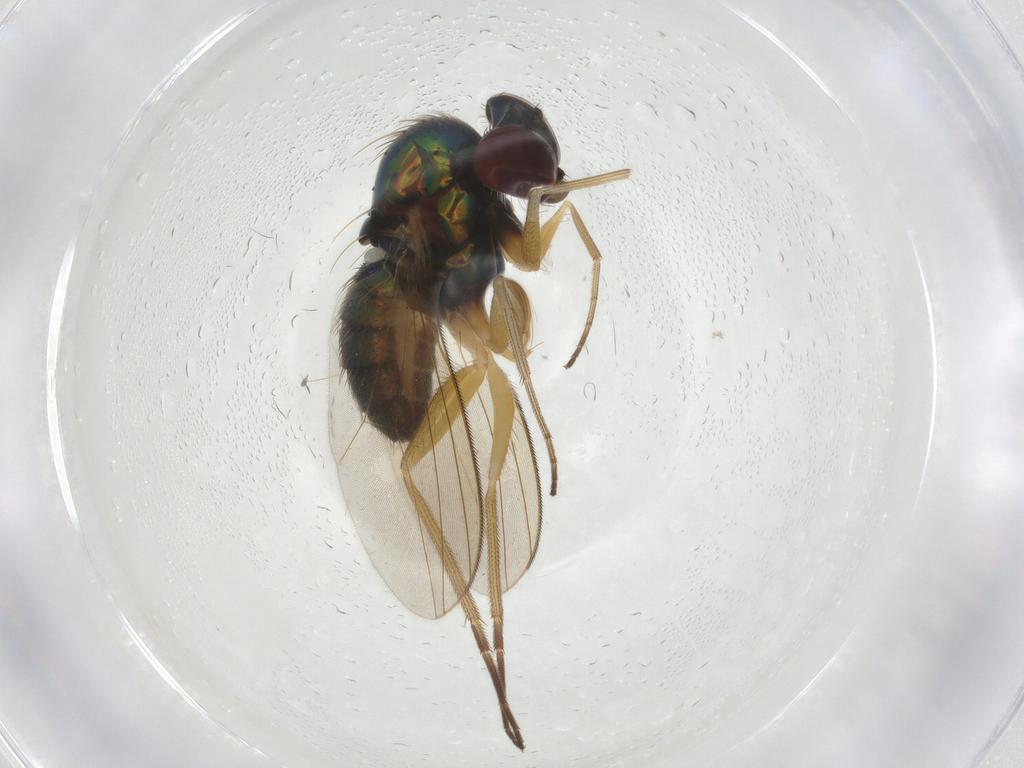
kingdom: Animalia
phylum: Arthropoda
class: Insecta
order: Diptera
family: Dolichopodidae
